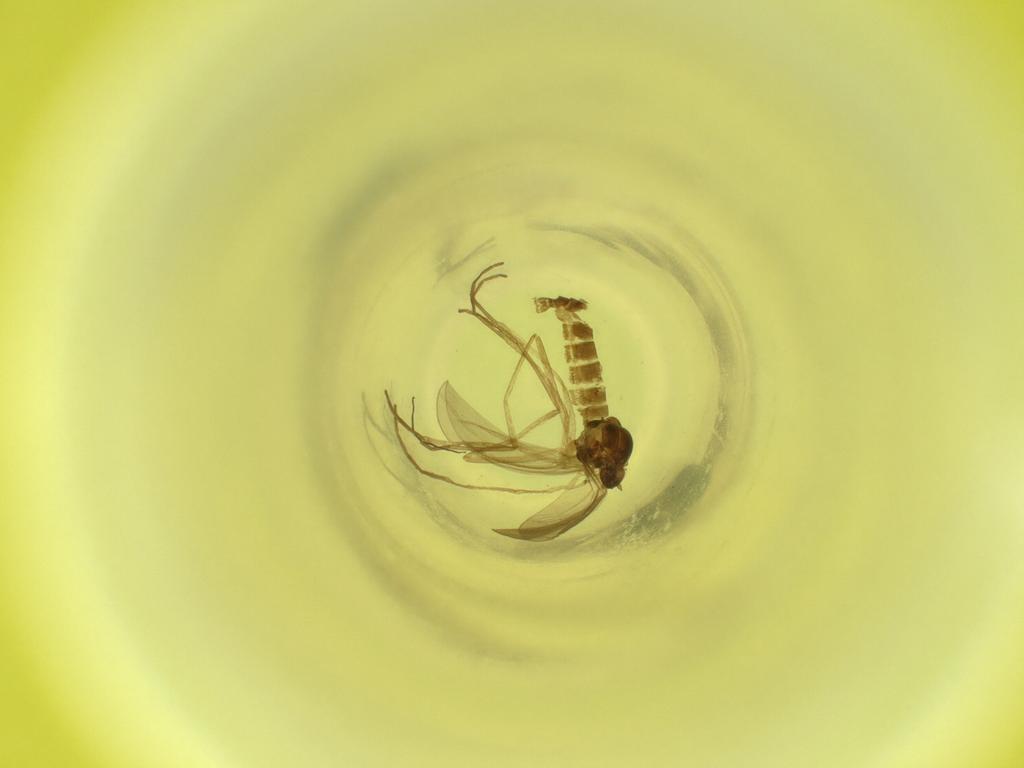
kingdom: Animalia
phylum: Arthropoda
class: Insecta
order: Diptera
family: Cecidomyiidae
